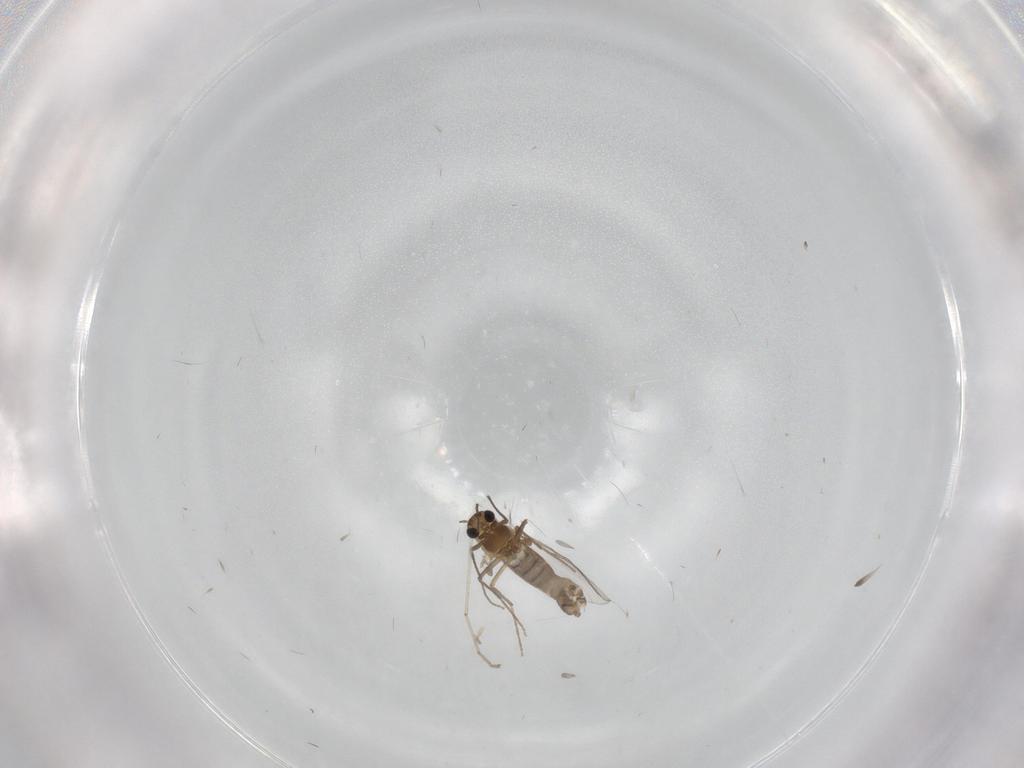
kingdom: Animalia
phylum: Arthropoda
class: Insecta
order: Diptera
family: Chironomidae
